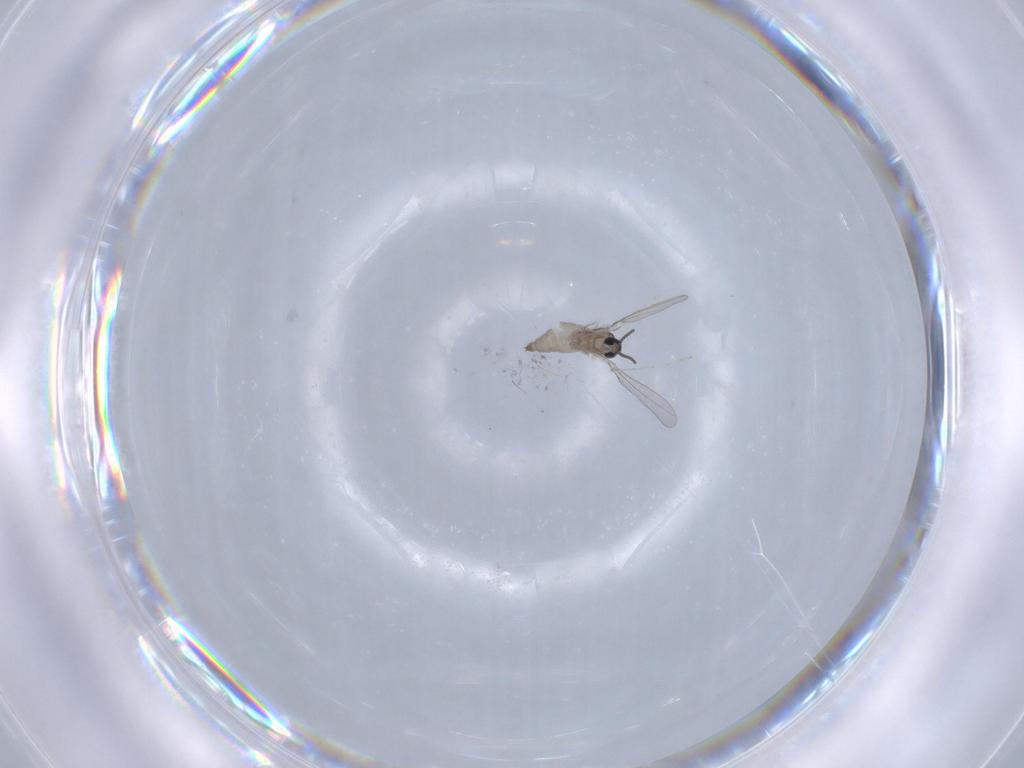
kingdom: Animalia
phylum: Arthropoda
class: Insecta
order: Diptera
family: Cecidomyiidae
